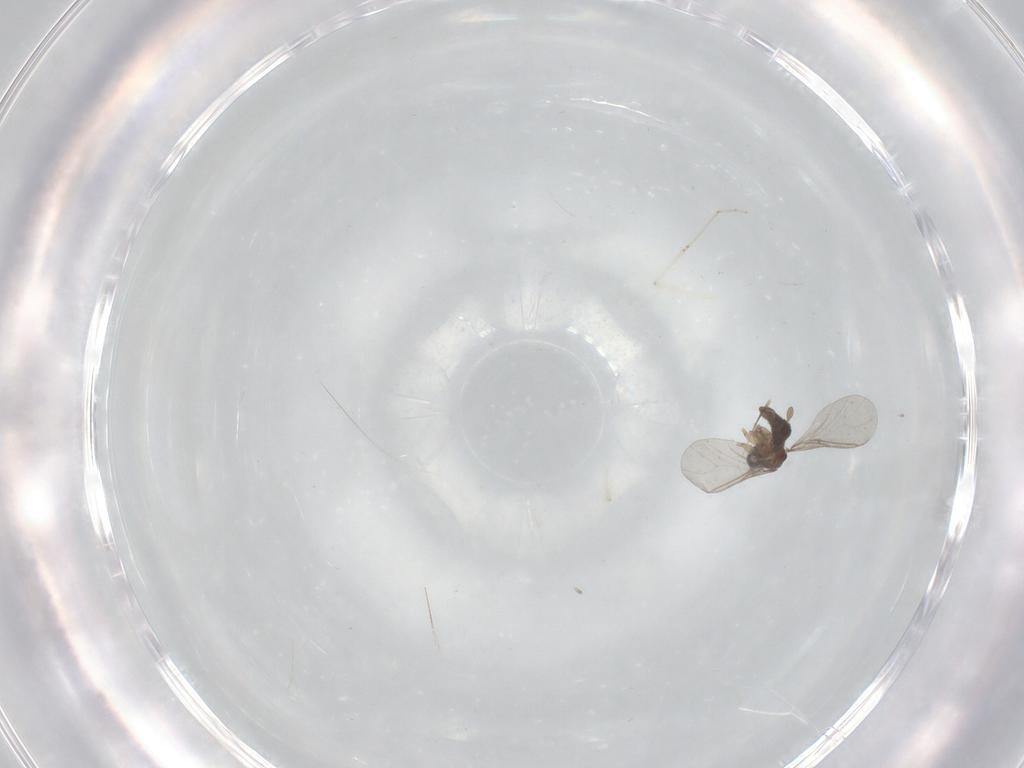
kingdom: Animalia
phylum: Arthropoda
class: Insecta
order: Diptera
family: Sciaridae
